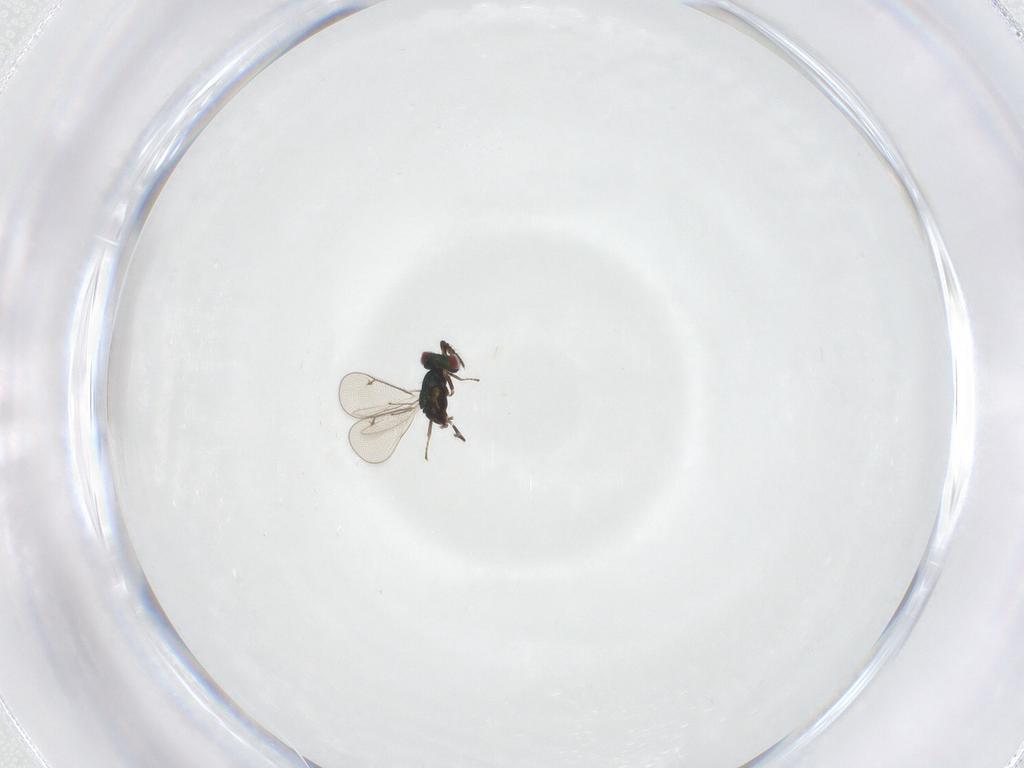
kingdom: Animalia
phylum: Arthropoda
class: Insecta
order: Hymenoptera
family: Eulophidae
